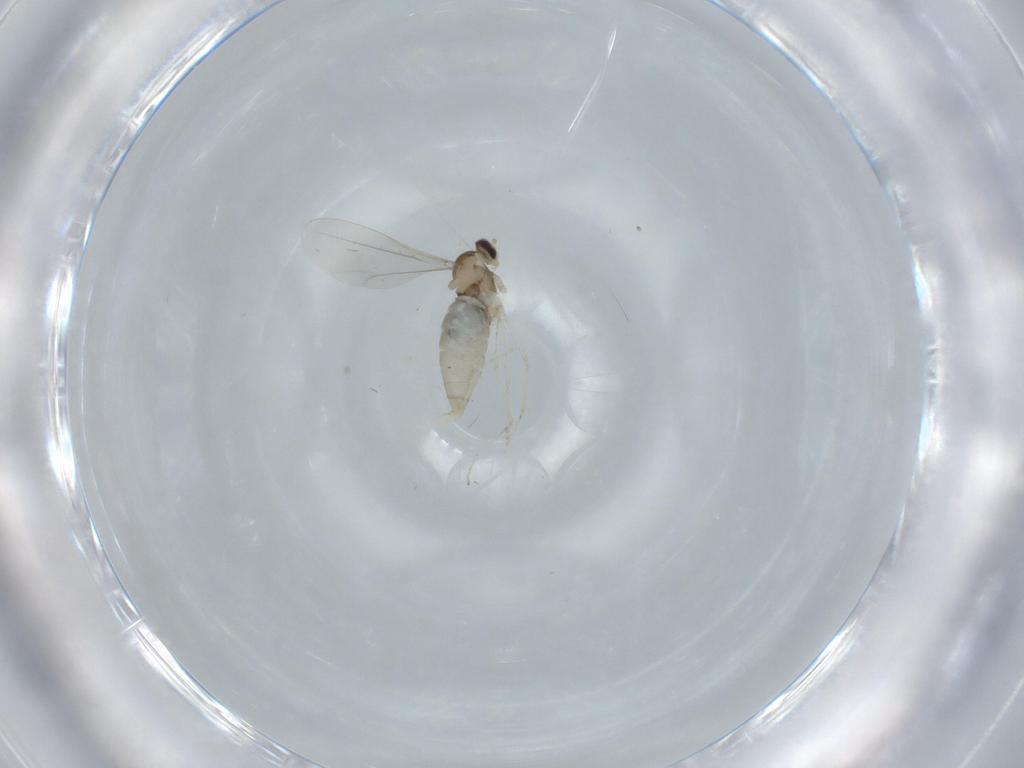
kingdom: Animalia
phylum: Arthropoda
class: Insecta
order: Diptera
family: Cecidomyiidae
